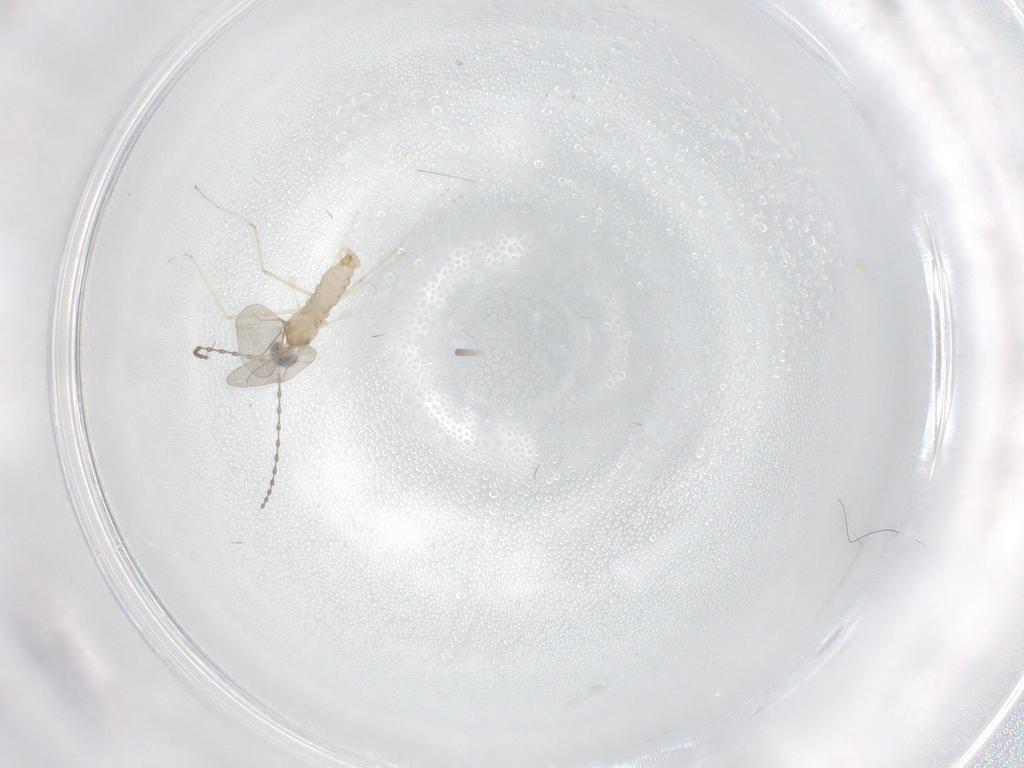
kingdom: Animalia
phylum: Arthropoda
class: Insecta
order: Diptera
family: Cecidomyiidae
